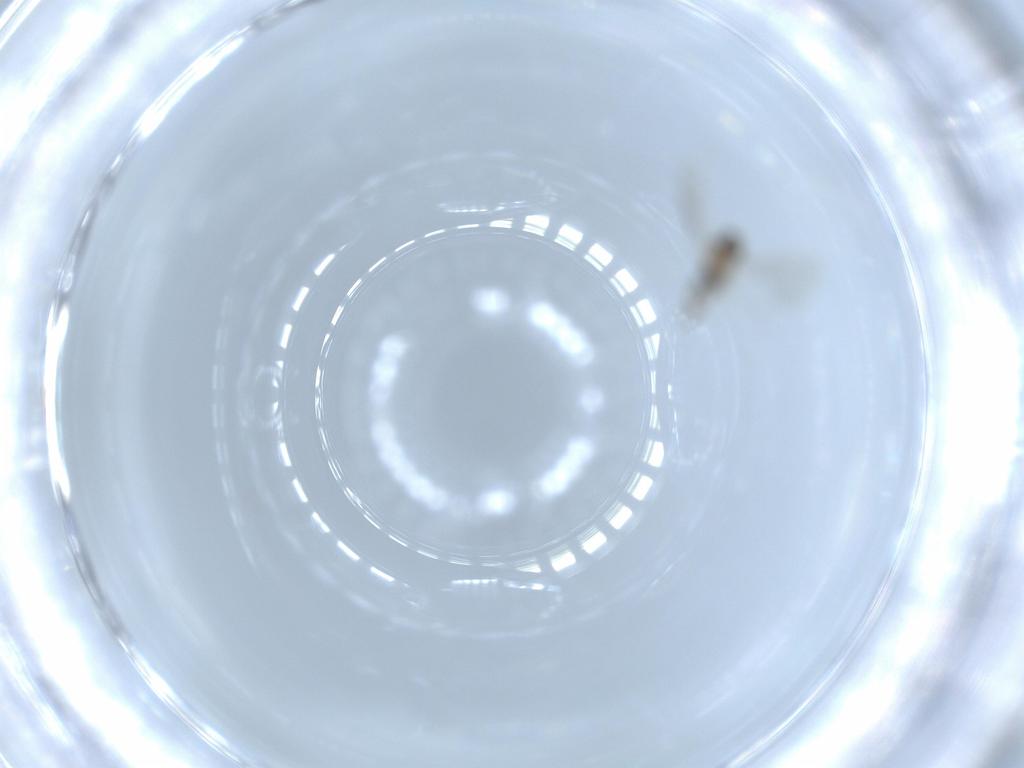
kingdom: Animalia
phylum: Arthropoda
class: Insecta
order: Diptera
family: Cecidomyiidae
